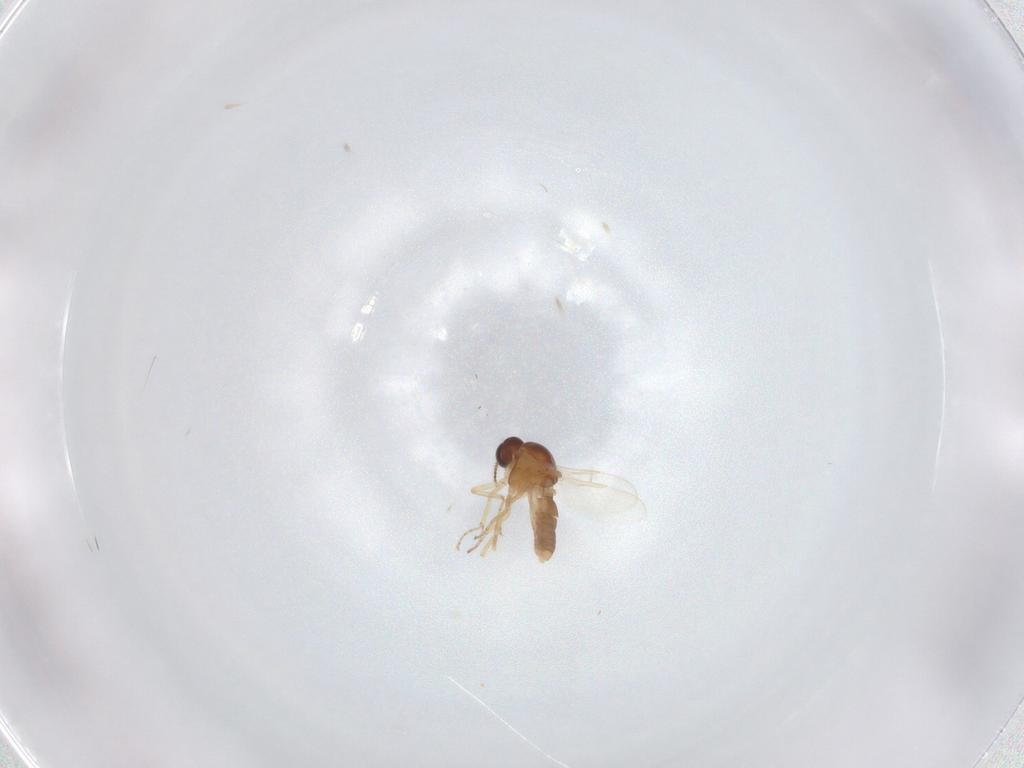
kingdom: Animalia
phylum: Arthropoda
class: Insecta
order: Diptera
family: Ceratopogonidae
